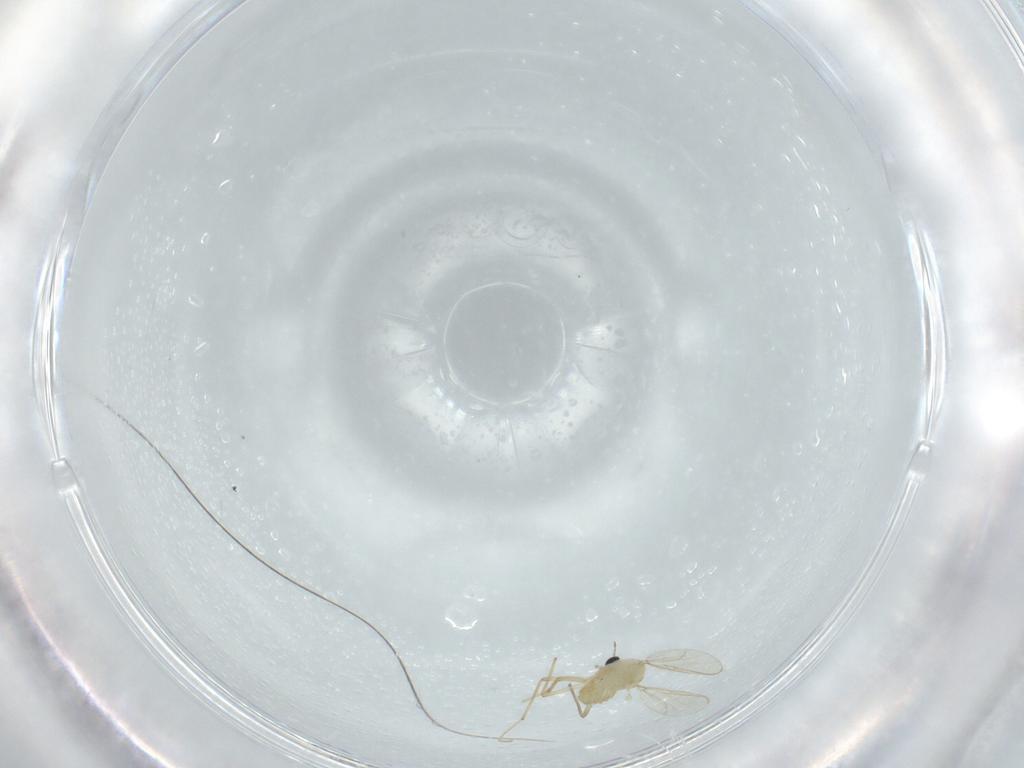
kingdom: Animalia
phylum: Arthropoda
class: Insecta
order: Diptera
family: Chironomidae
